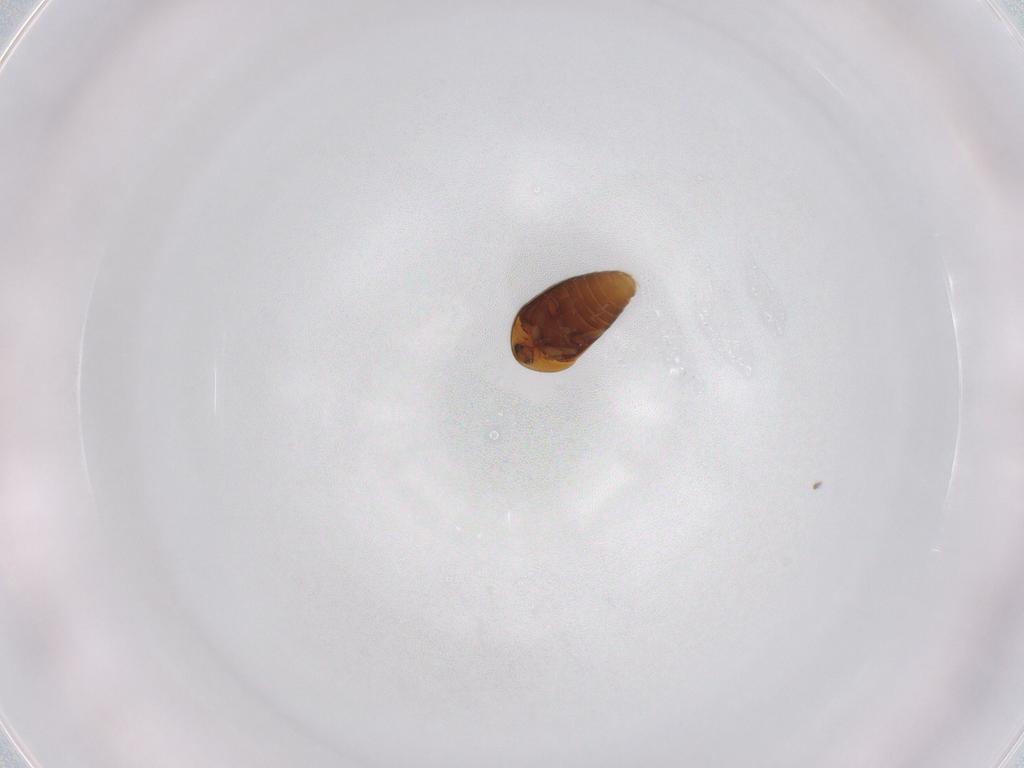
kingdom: Animalia
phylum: Arthropoda
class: Insecta
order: Coleoptera
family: Corylophidae
